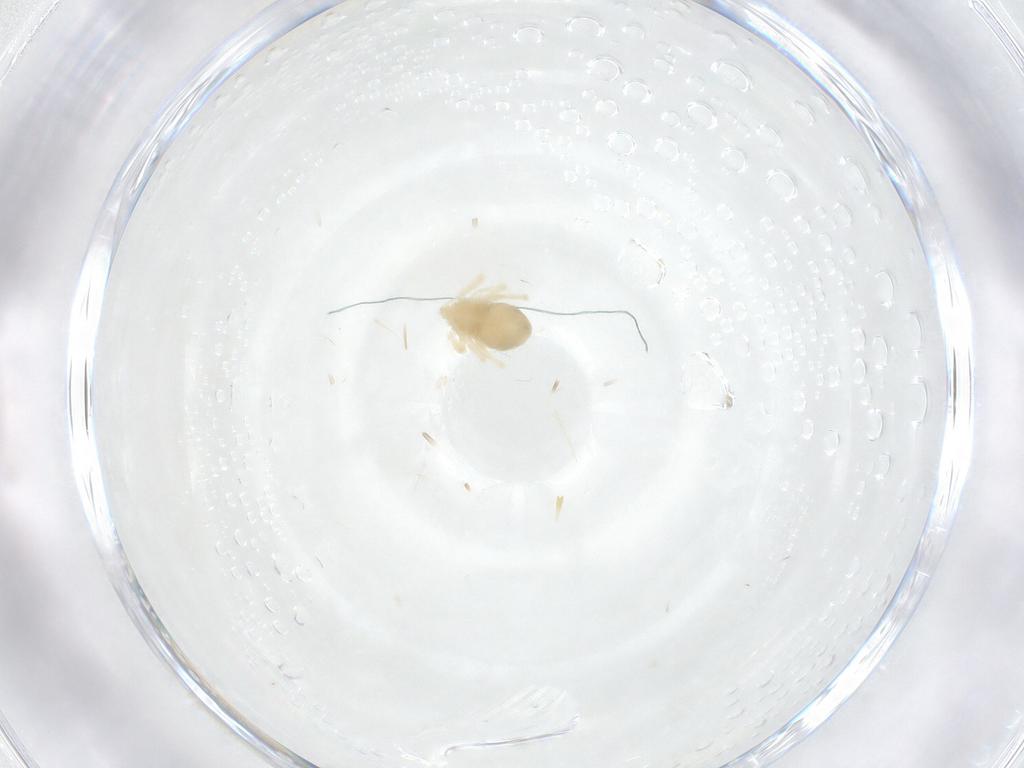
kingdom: Animalia
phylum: Arthropoda
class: Arachnida
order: Trombidiformes
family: Anystidae
